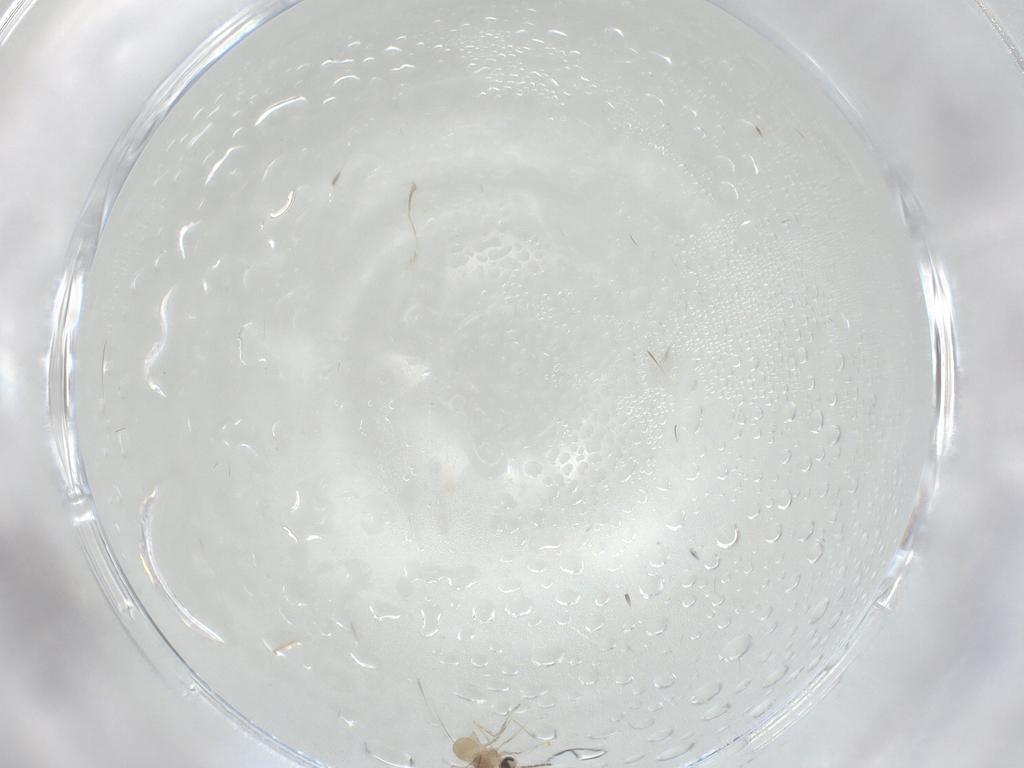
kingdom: Animalia
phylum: Arthropoda
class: Insecta
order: Diptera
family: Cecidomyiidae
